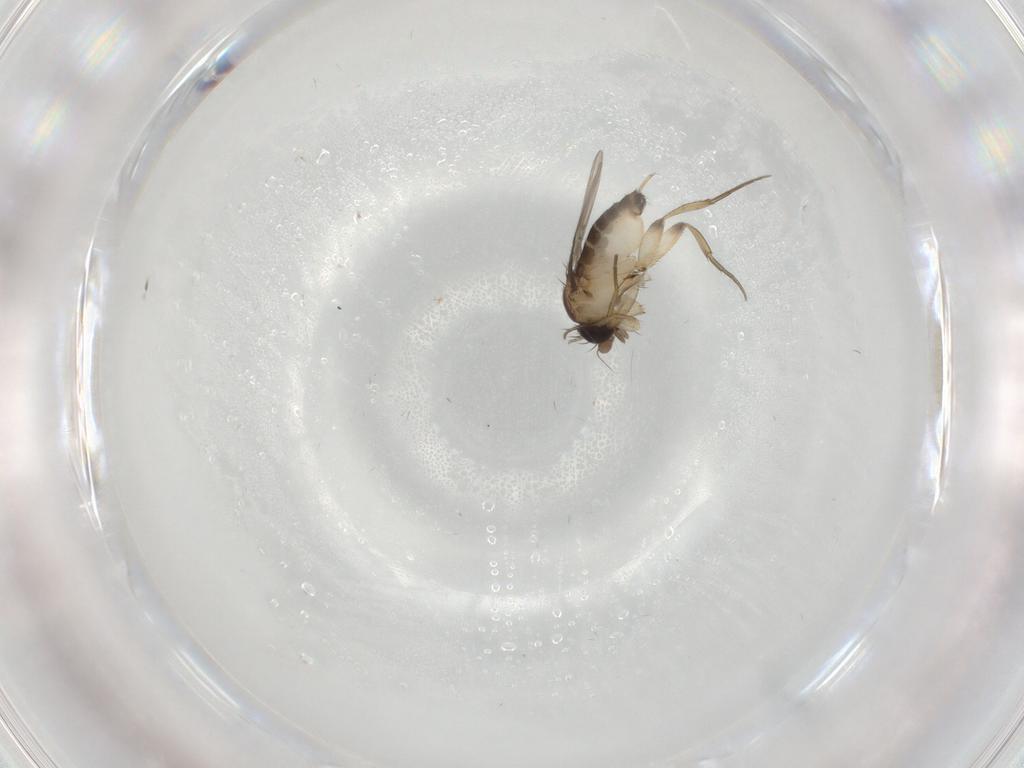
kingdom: Animalia
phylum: Arthropoda
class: Insecta
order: Diptera
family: Phoridae
